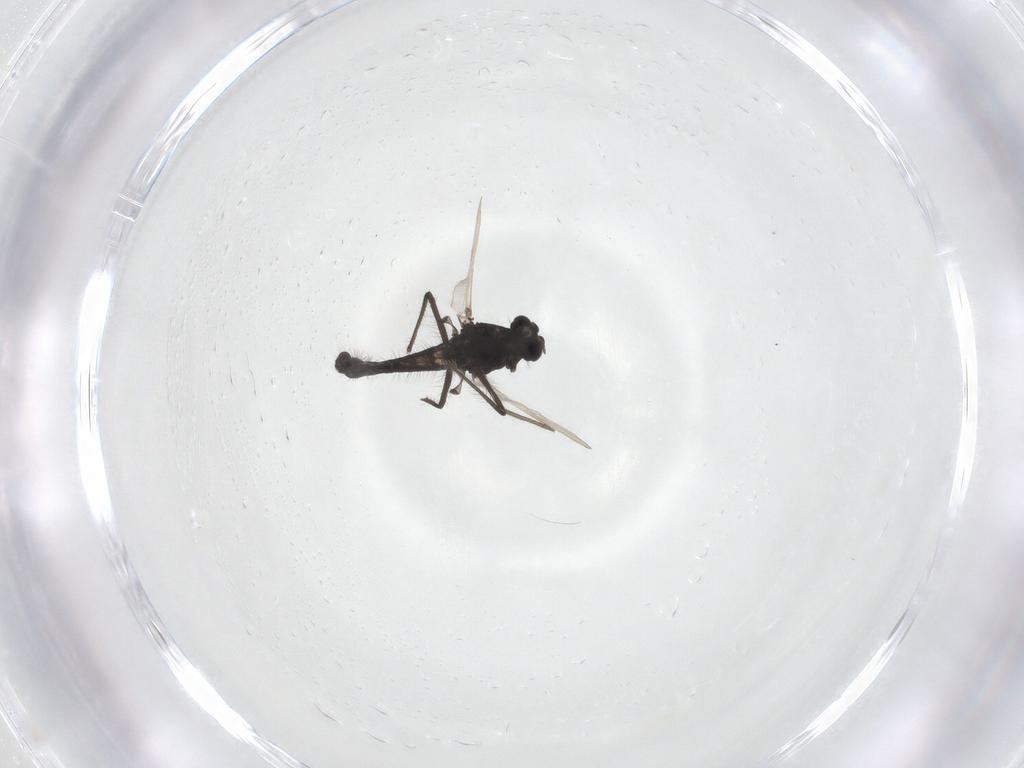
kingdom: Animalia
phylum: Arthropoda
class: Insecta
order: Diptera
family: Chironomidae
